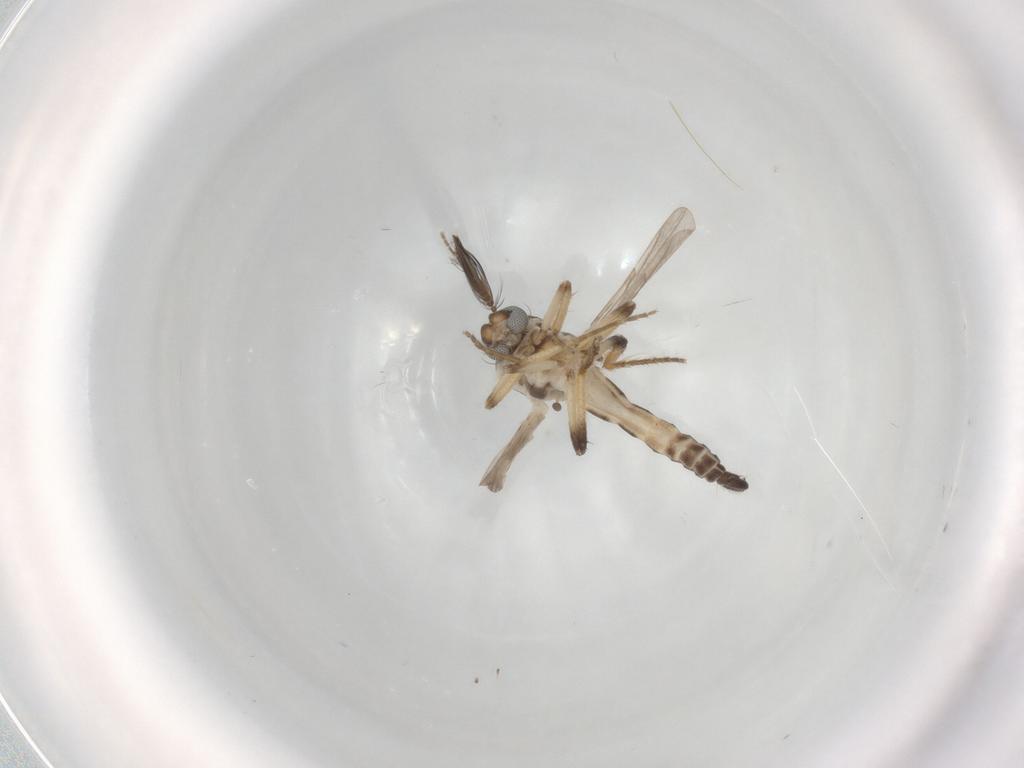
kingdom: Animalia
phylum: Arthropoda
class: Insecta
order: Diptera
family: Ceratopogonidae
